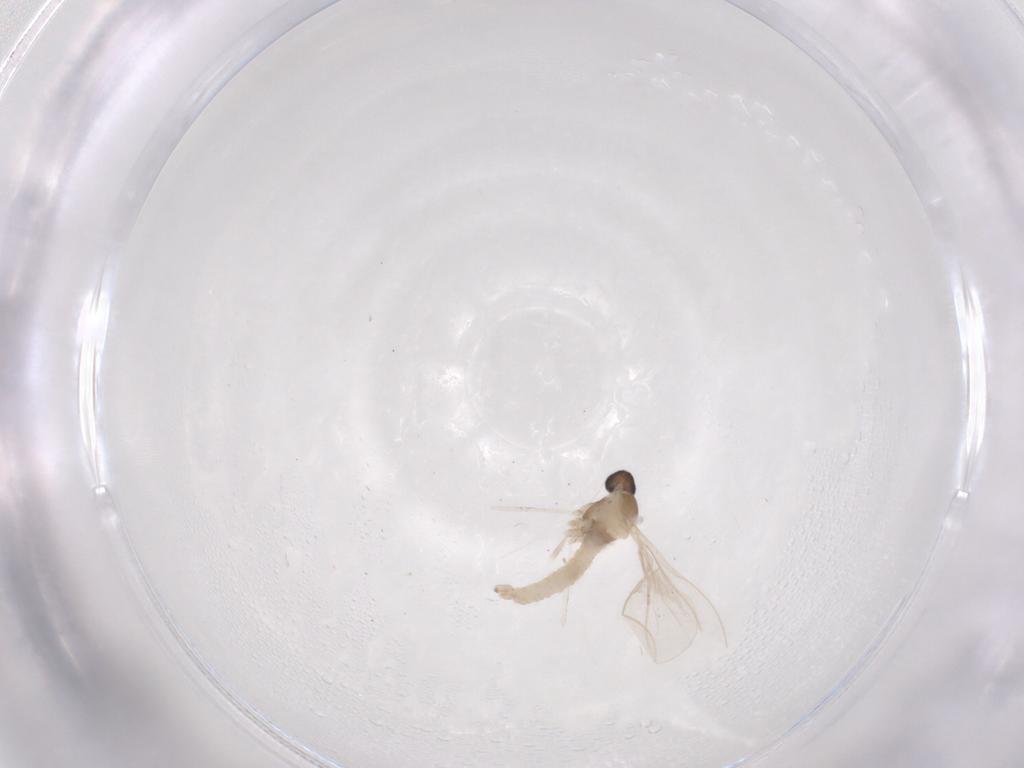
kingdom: Animalia
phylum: Arthropoda
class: Insecta
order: Diptera
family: Cecidomyiidae
